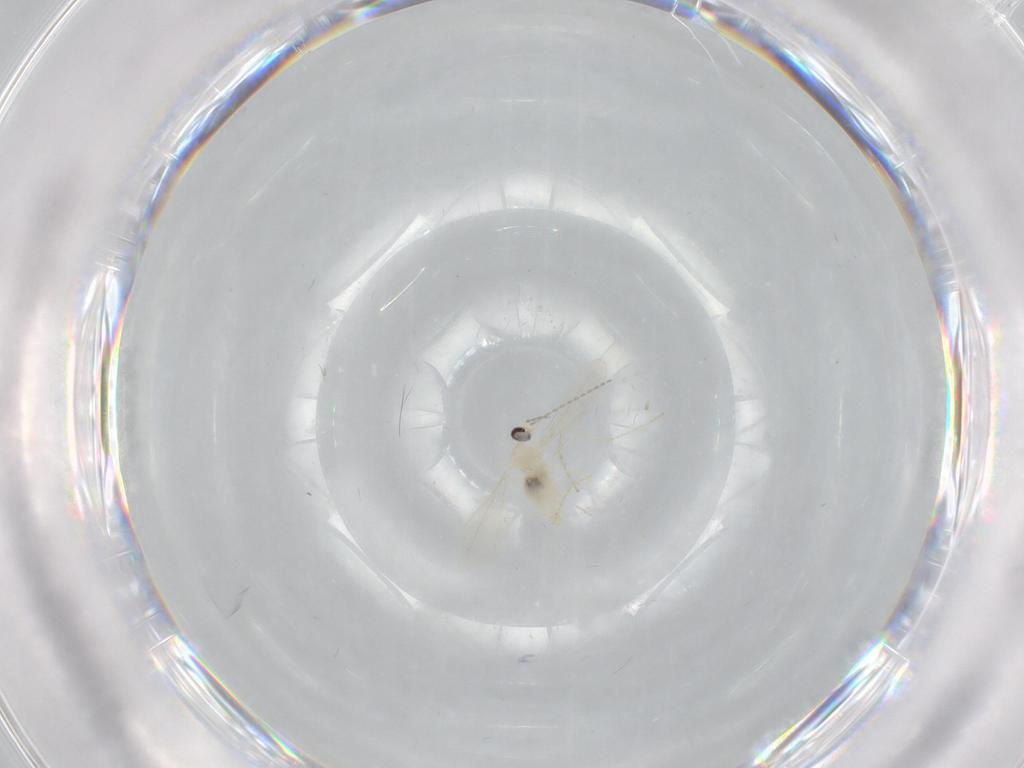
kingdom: Animalia
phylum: Arthropoda
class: Insecta
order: Diptera
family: Cecidomyiidae
